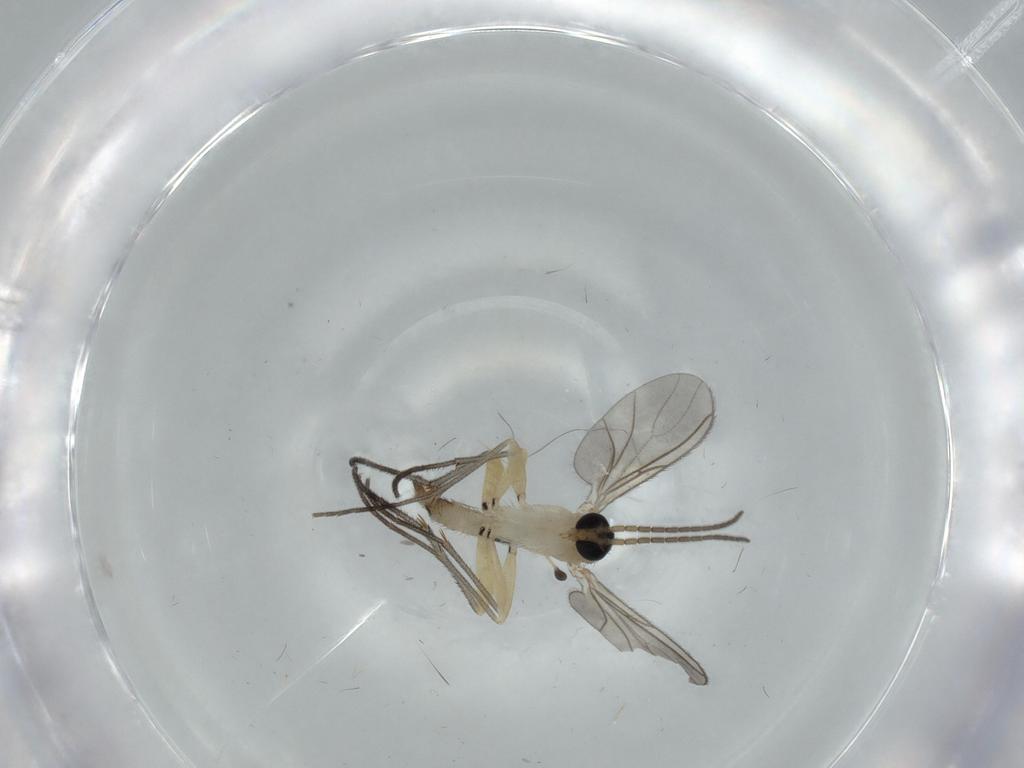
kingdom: Animalia
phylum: Arthropoda
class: Insecta
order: Diptera
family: Sciaridae
